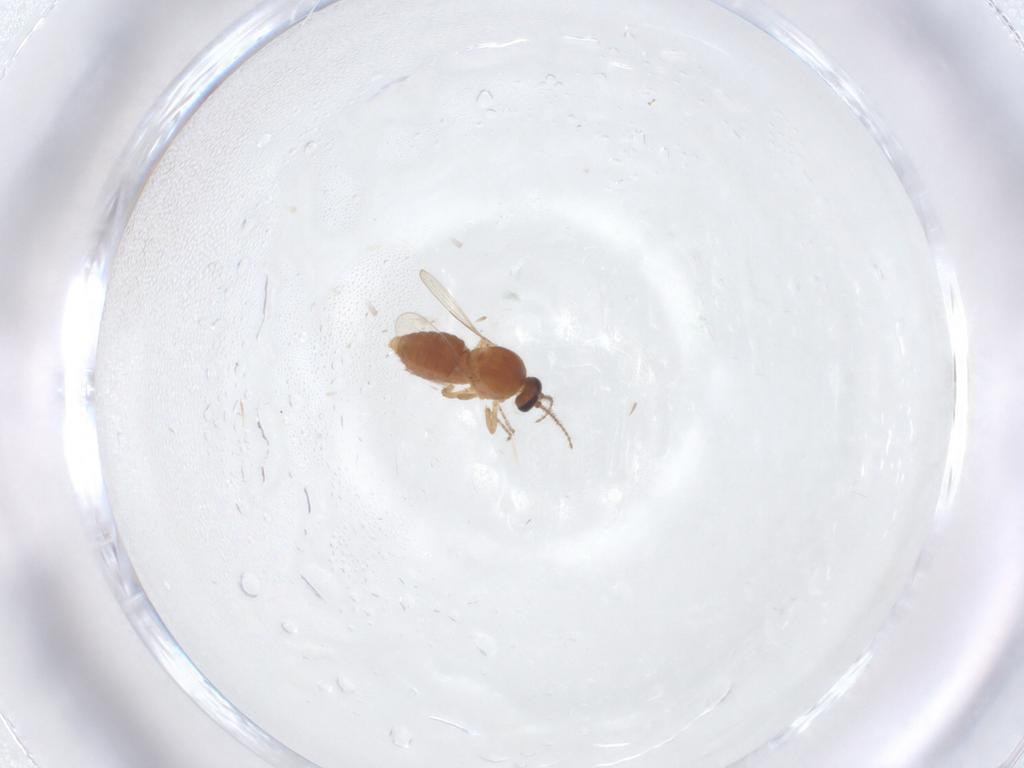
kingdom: Animalia
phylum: Arthropoda
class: Insecta
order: Diptera
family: Ceratopogonidae
